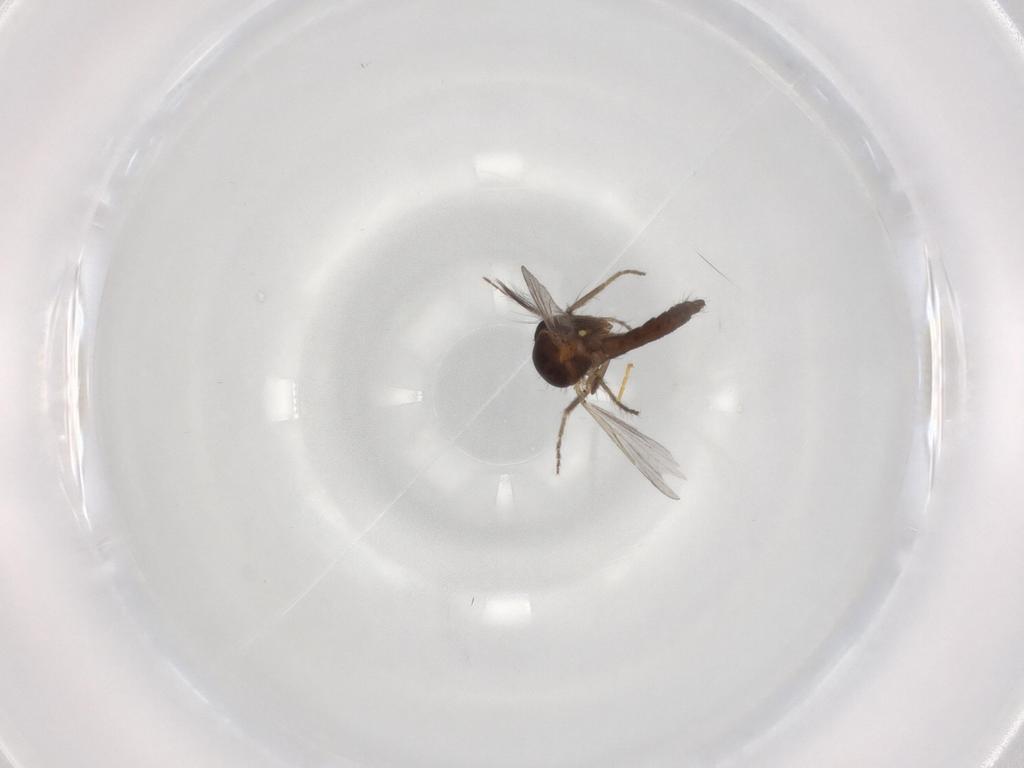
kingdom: Animalia
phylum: Arthropoda
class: Insecta
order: Diptera
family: Ceratopogonidae
